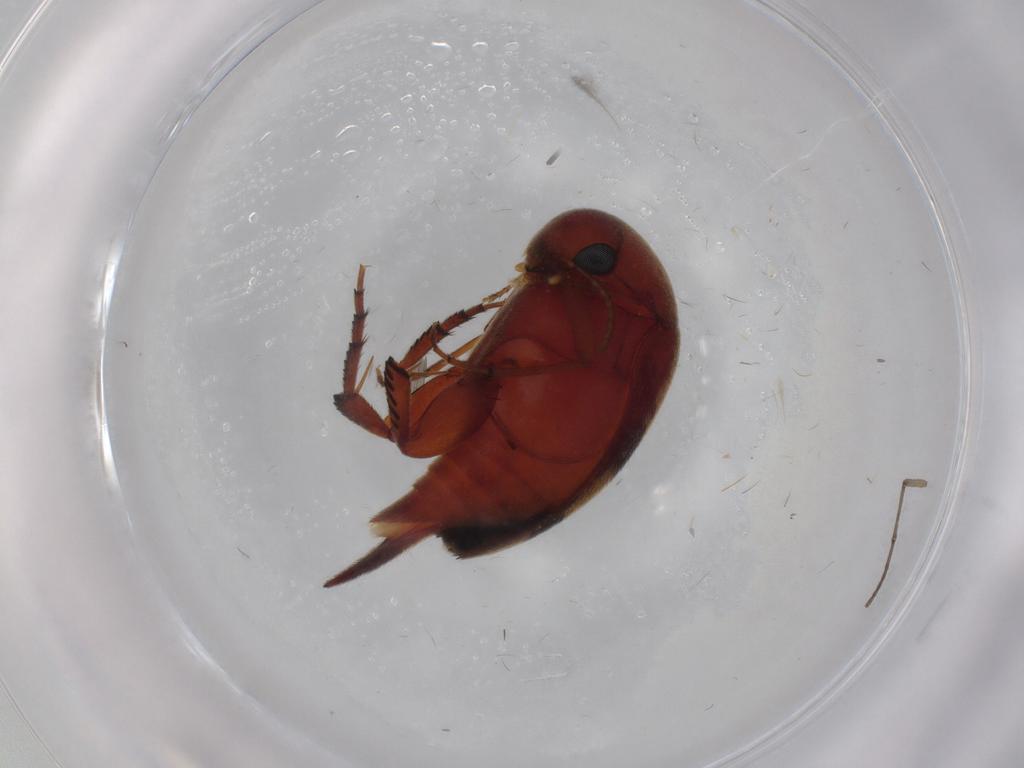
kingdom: Animalia
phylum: Arthropoda
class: Insecta
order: Coleoptera
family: Mordellidae
